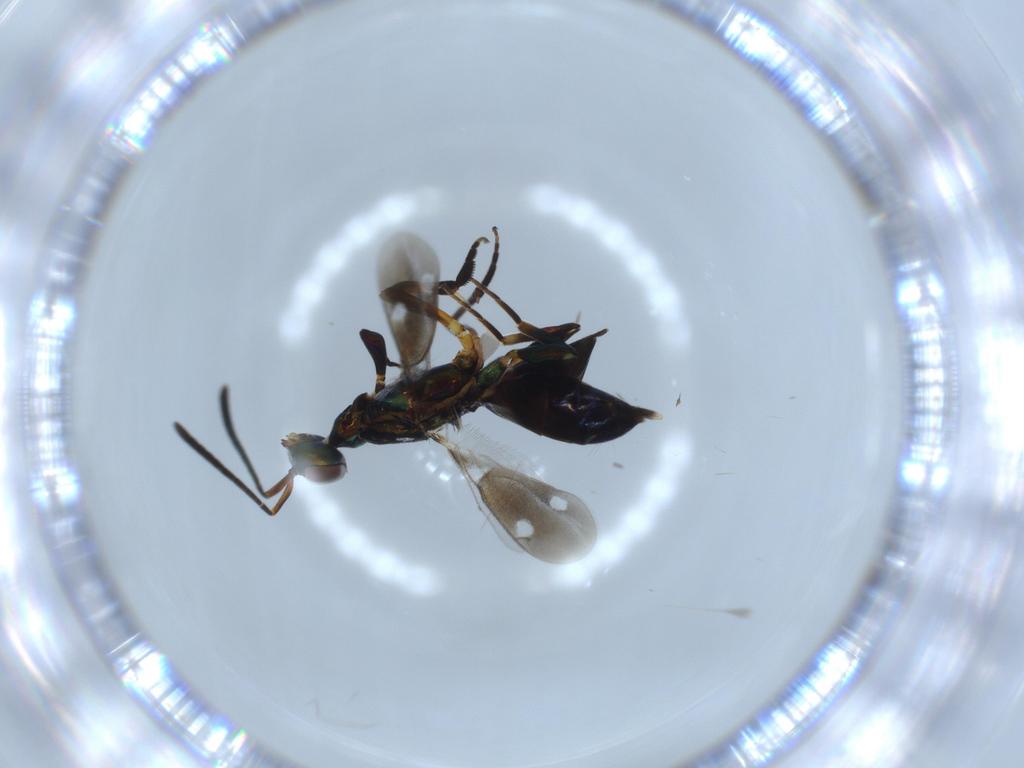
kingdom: Animalia
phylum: Arthropoda
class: Insecta
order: Hymenoptera
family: Eupelmidae
